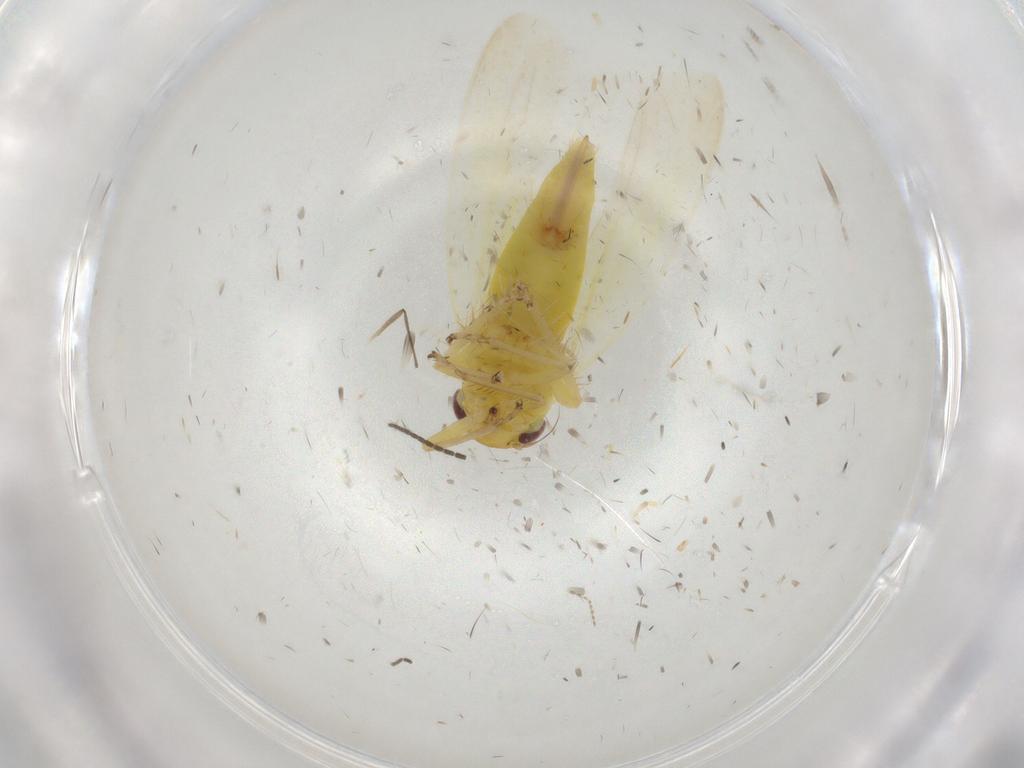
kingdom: Animalia
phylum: Arthropoda
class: Insecta
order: Hemiptera
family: Cicadellidae
